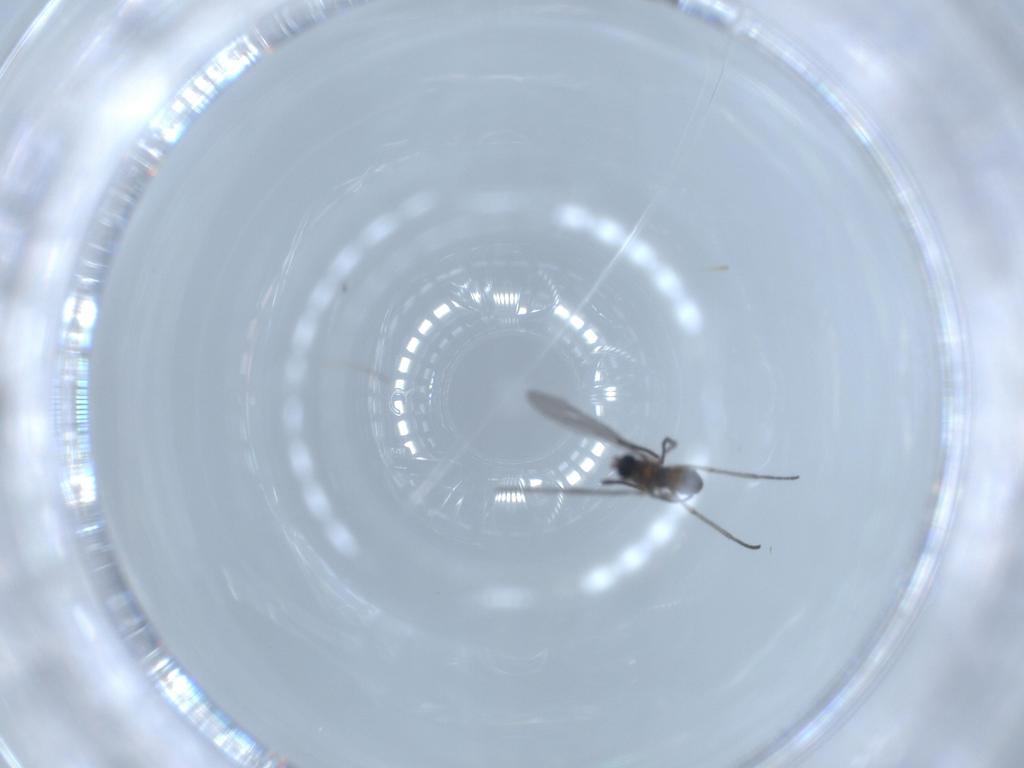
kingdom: Animalia
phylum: Arthropoda
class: Insecta
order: Diptera
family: Sciaridae
